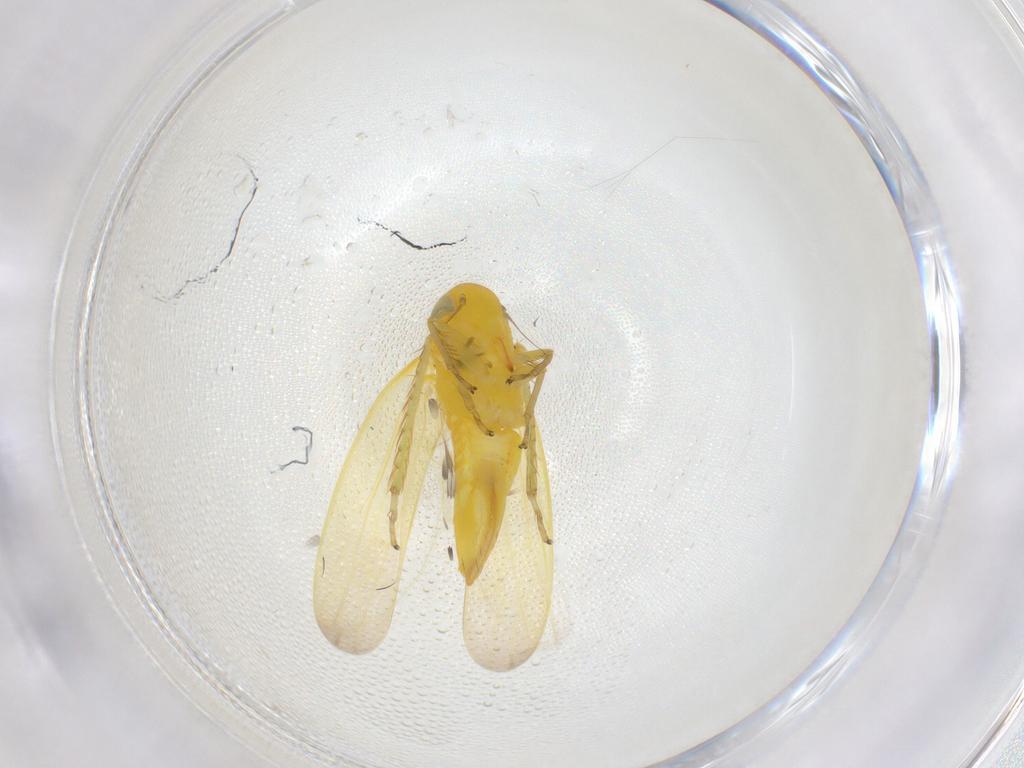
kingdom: Animalia
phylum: Arthropoda
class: Insecta
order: Hemiptera
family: Cicadellidae
